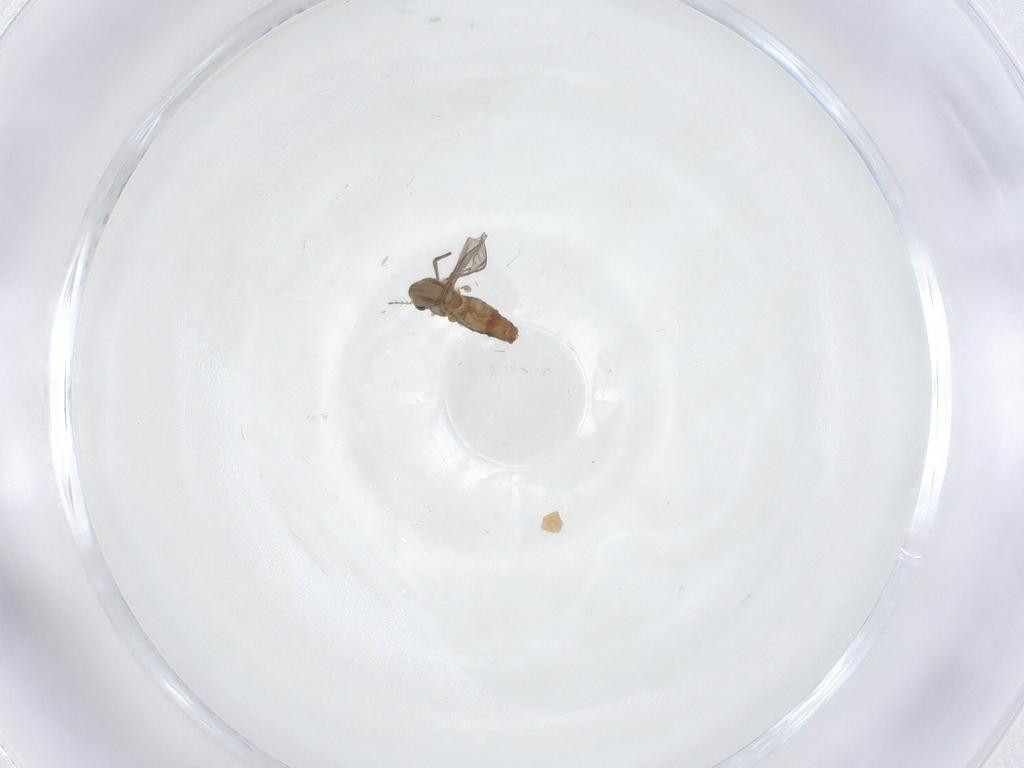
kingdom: Animalia
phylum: Arthropoda
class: Insecta
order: Diptera
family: Chironomidae
